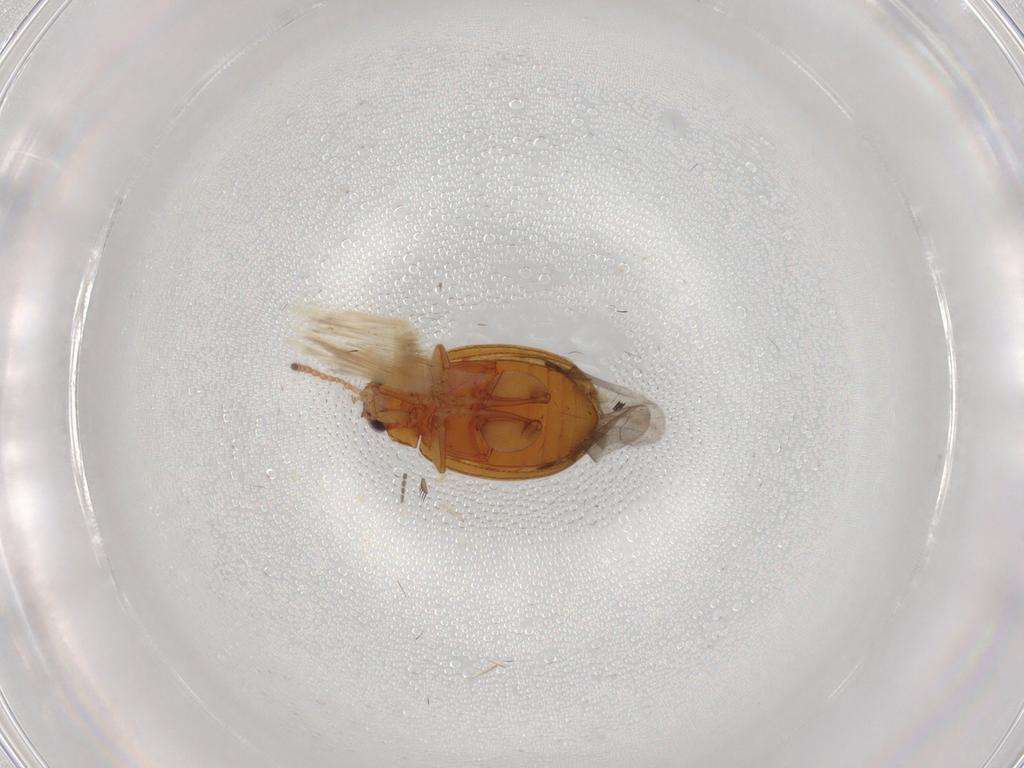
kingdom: Animalia
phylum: Arthropoda
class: Insecta
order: Coleoptera
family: Chrysomelidae
